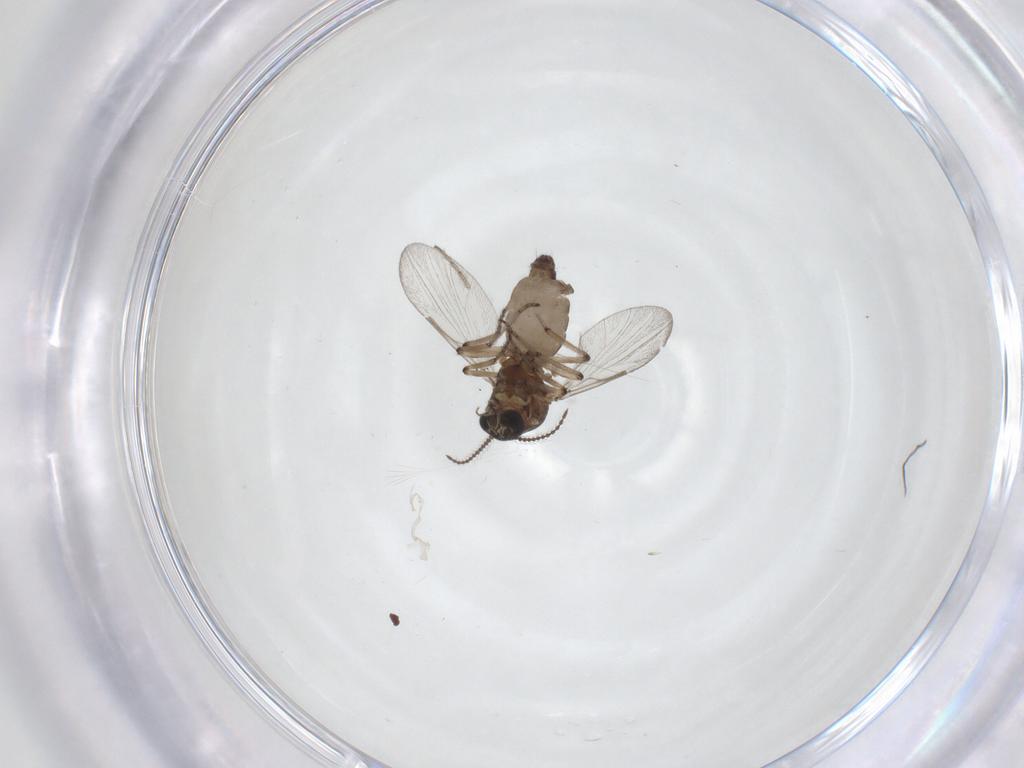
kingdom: Animalia
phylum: Arthropoda
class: Insecta
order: Diptera
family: Ceratopogonidae
